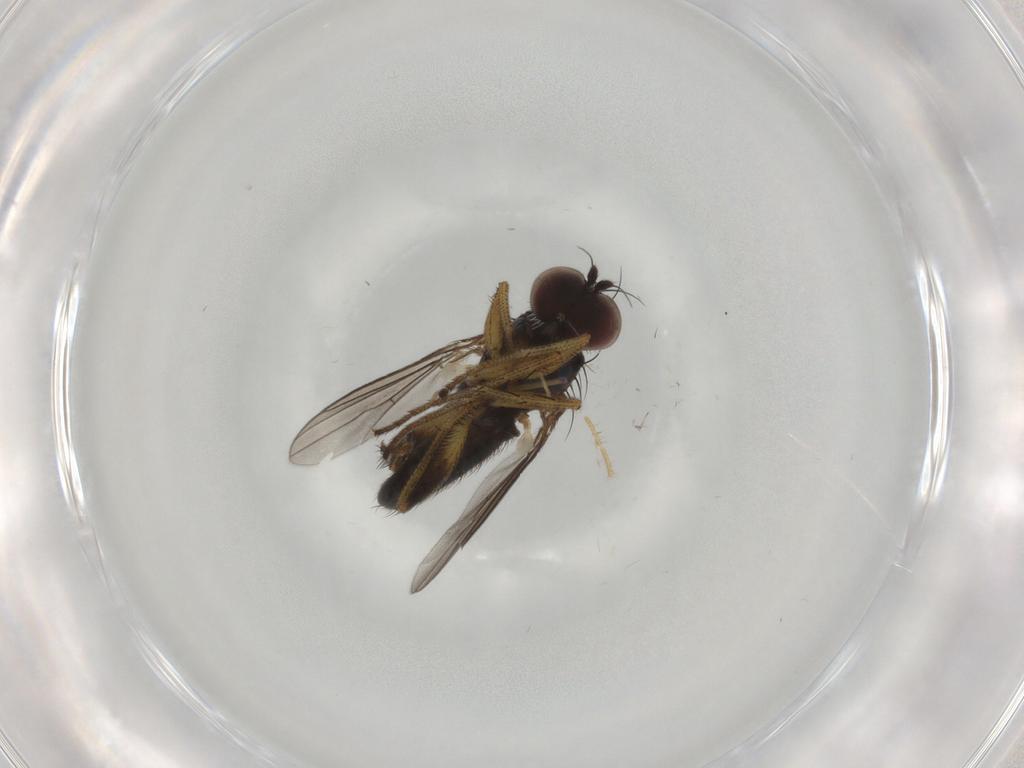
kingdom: Animalia
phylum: Arthropoda
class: Insecta
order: Diptera
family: Dolichopodidae
